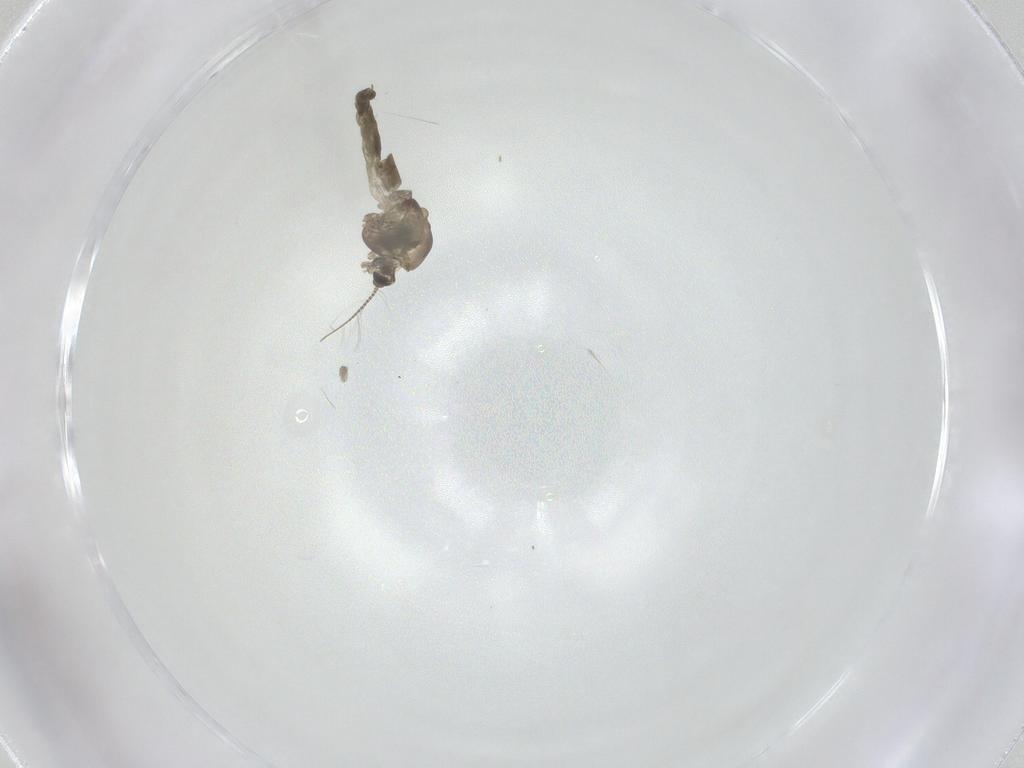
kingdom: Animalia
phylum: Arthropoda
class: Insecta
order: Diptera
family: Chironomidae
